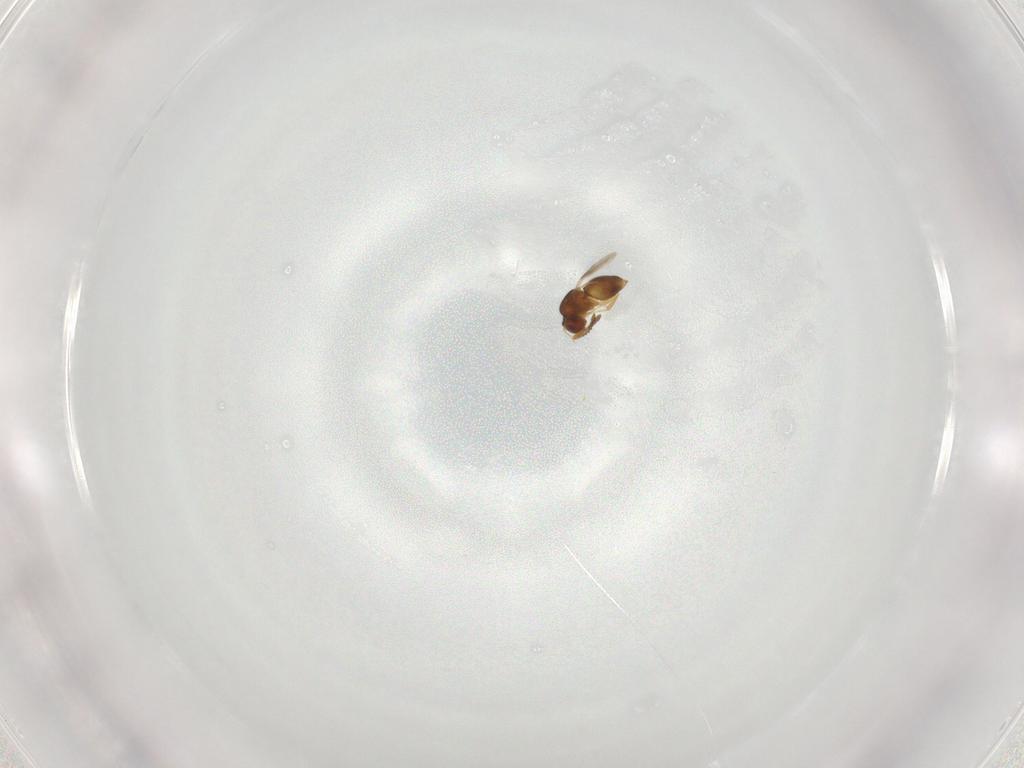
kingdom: Animalia
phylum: Arthropoda
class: Insecta
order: Hymenoptera
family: Ceraphronidae
